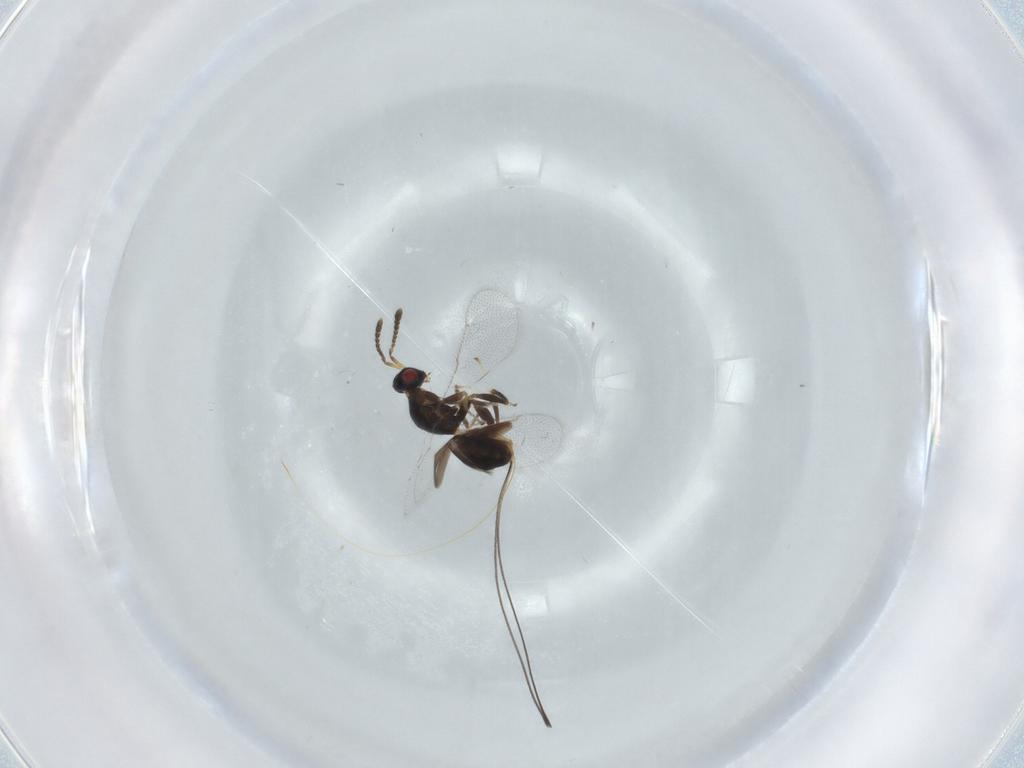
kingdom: Animalia
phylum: Arthropoda
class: Insecta
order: Hymenoptera
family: Torymidae
